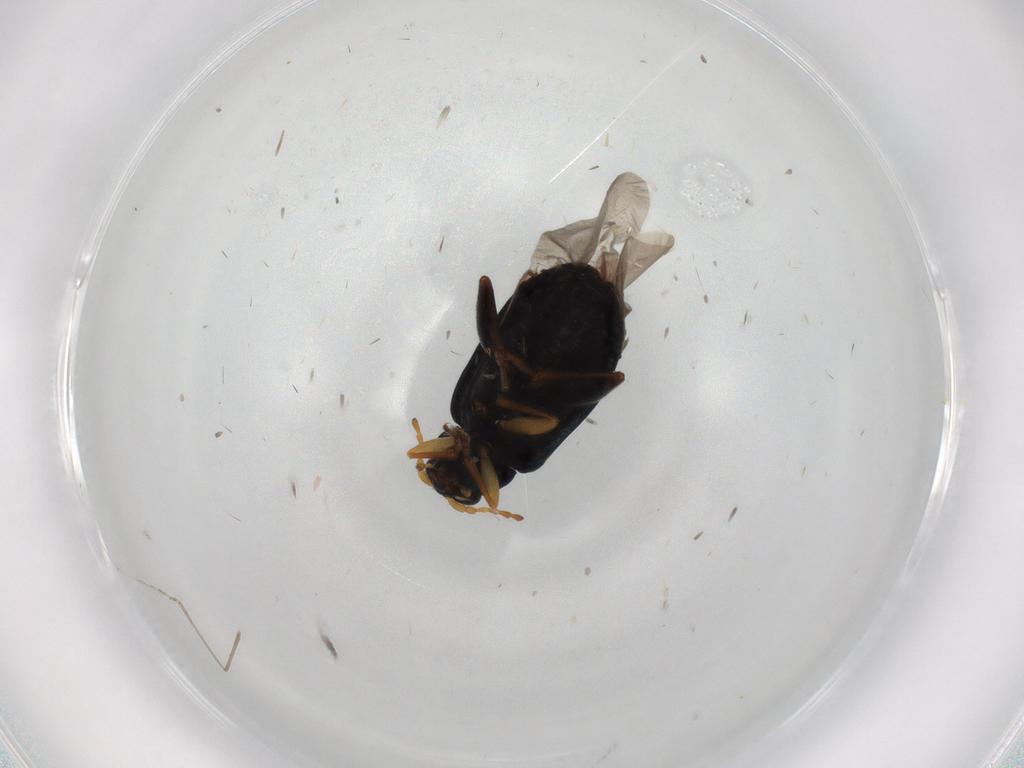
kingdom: Animalia
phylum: Arthropoda
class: Insecta
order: Coleoptera
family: Chrysomelidae
